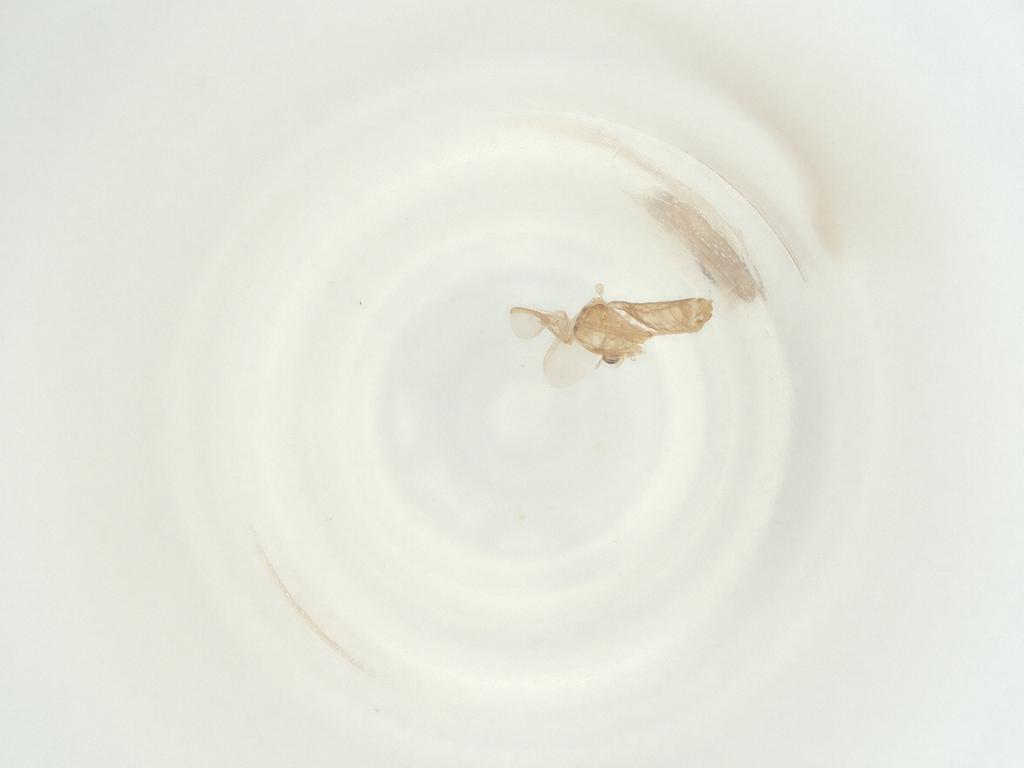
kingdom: Animalia
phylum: Arthropoda
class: Insecta
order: Diptera
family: Chironomidae
